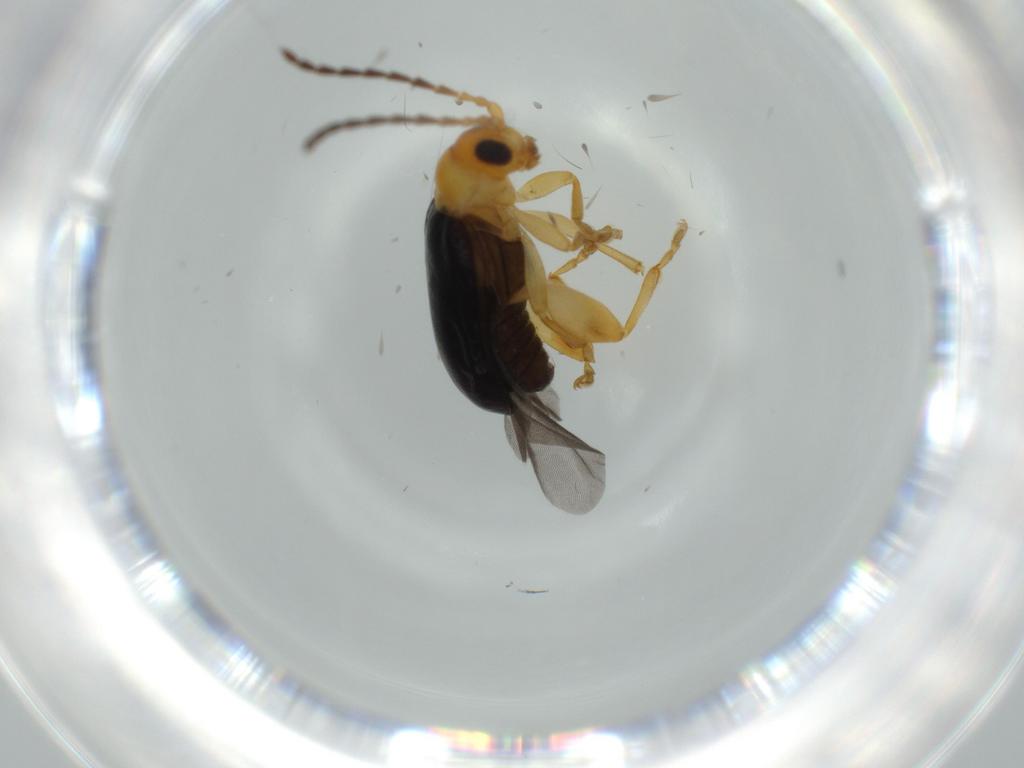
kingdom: Animalia
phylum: Arthropoda
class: Insecta
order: Coleoptera
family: Chrysomelidae
